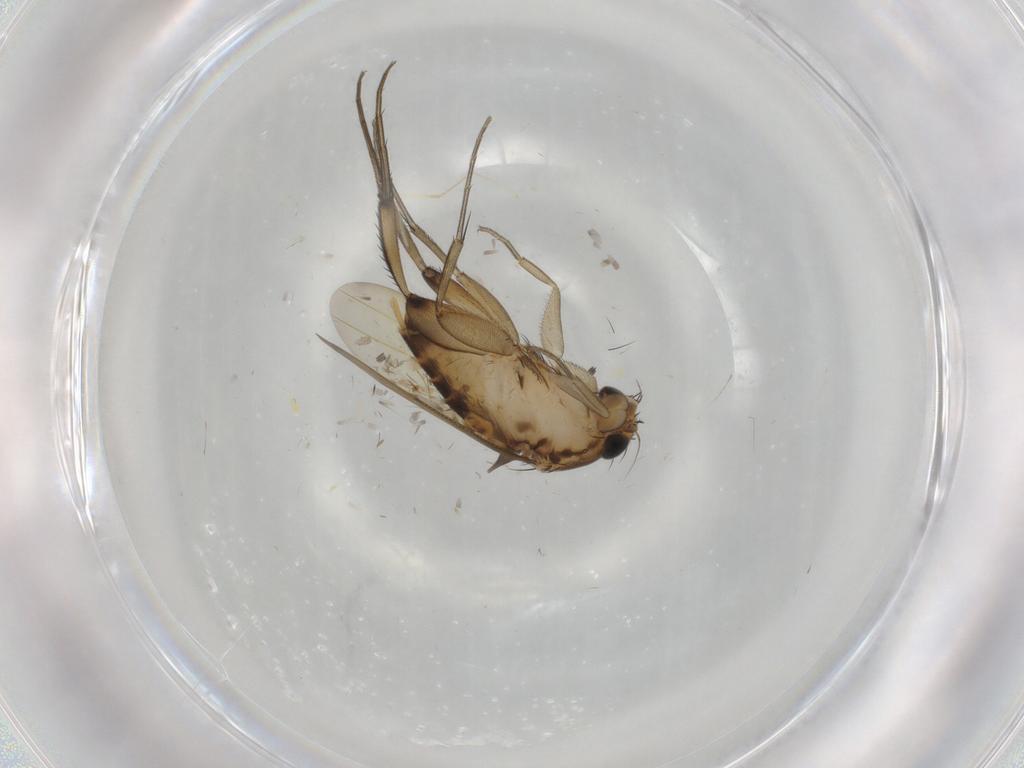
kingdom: Animalia
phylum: Arthropoda
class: Insecta
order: Diptera
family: Phoridae
